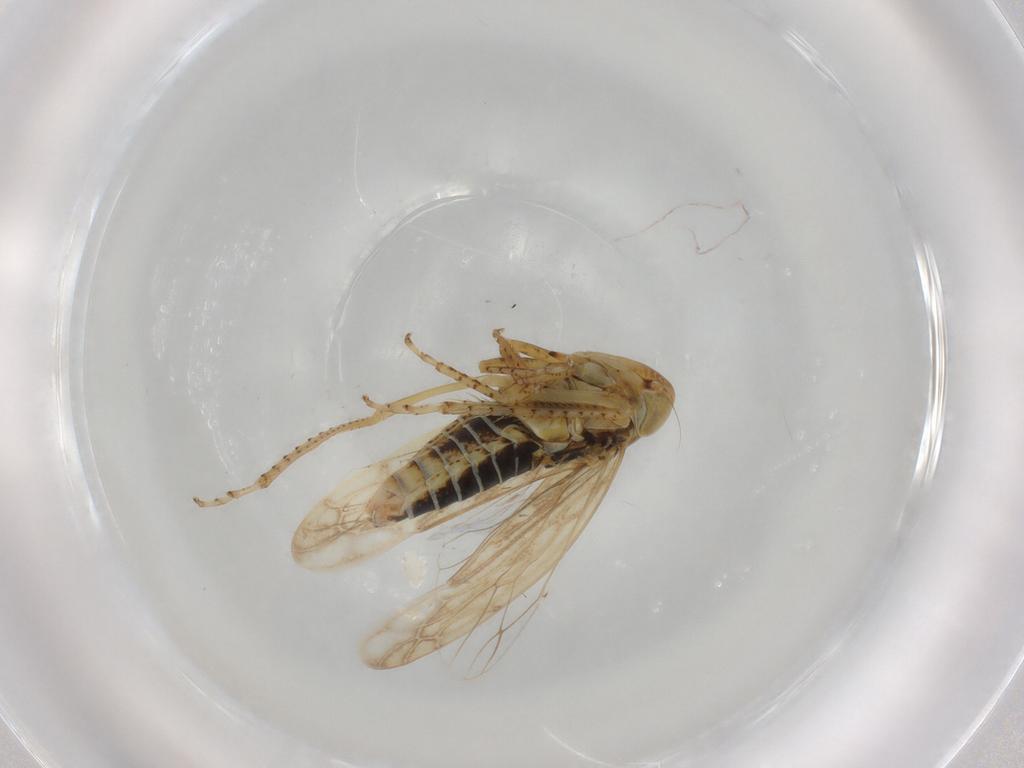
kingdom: Animalia
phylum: Arthropoda
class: Insecta
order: Hemiptera
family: Cicadellidae
